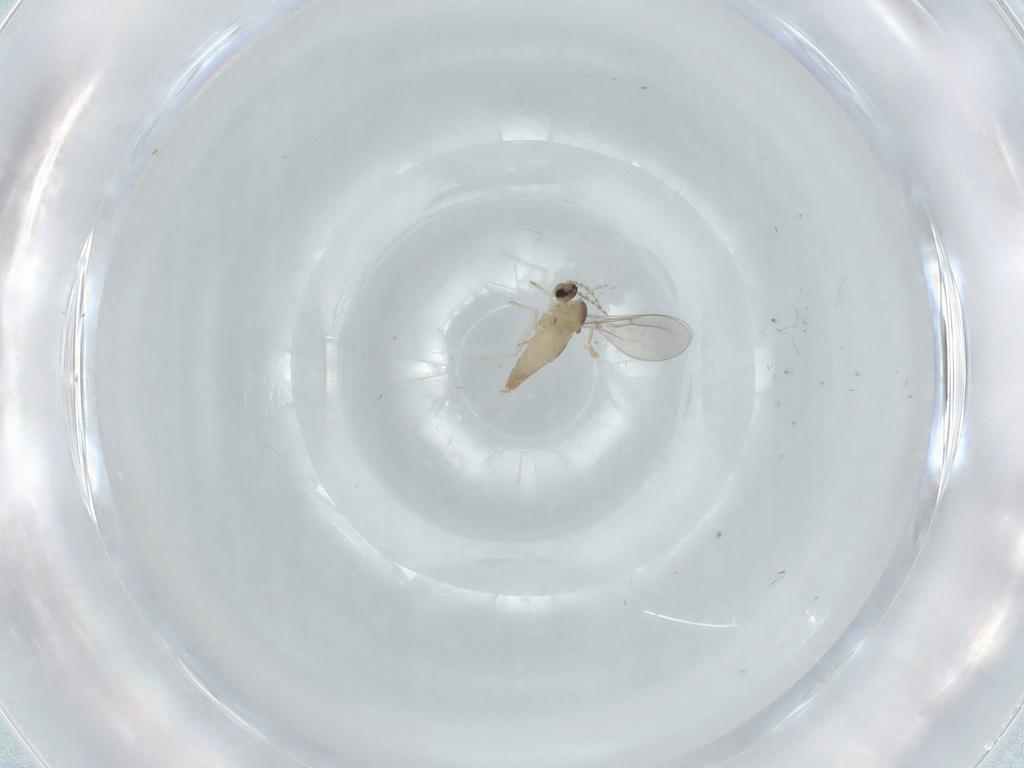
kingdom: Animalia
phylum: Arthropoda
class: Insecta
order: Diptera
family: Cecidomyiidae
